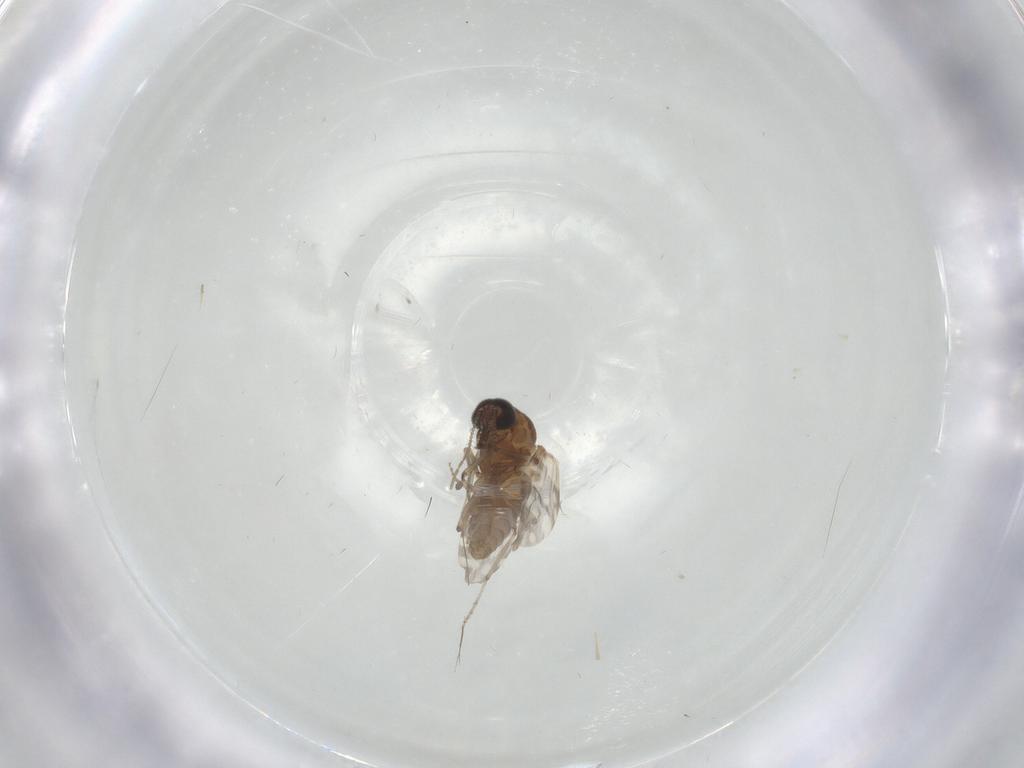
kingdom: Animalia
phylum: Arthropoda
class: Insecta
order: Diptera
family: Chironomidae
